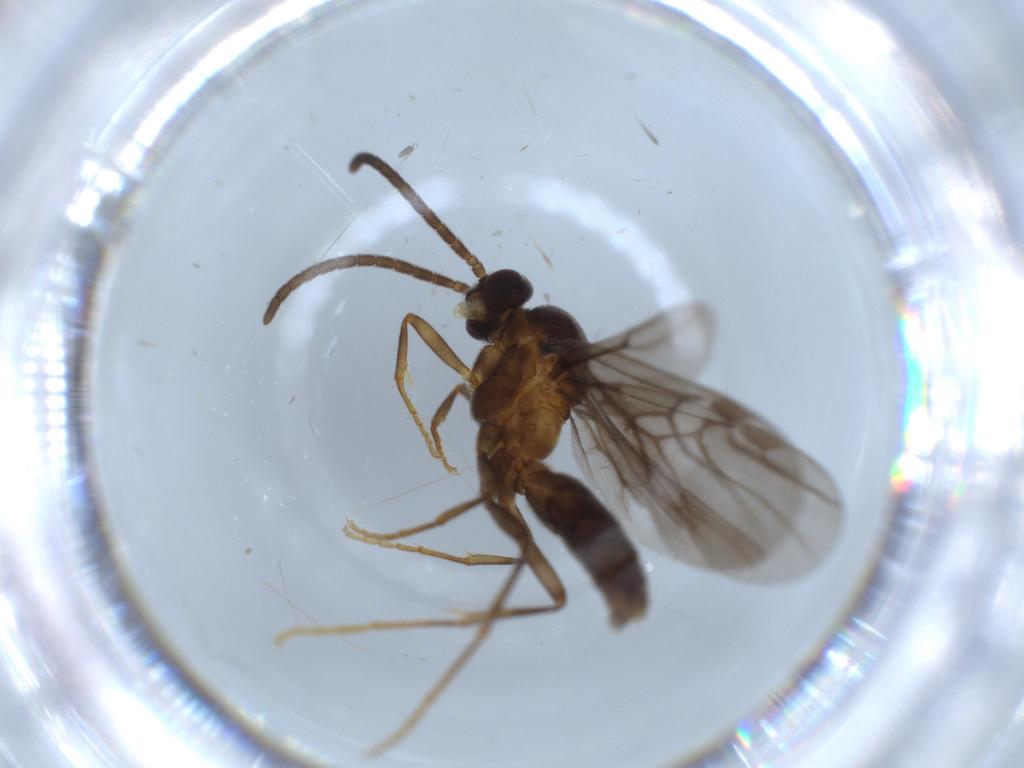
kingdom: Animalia
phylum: Arthropoda
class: Insecta
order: Hymenoptera
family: Formicidae
